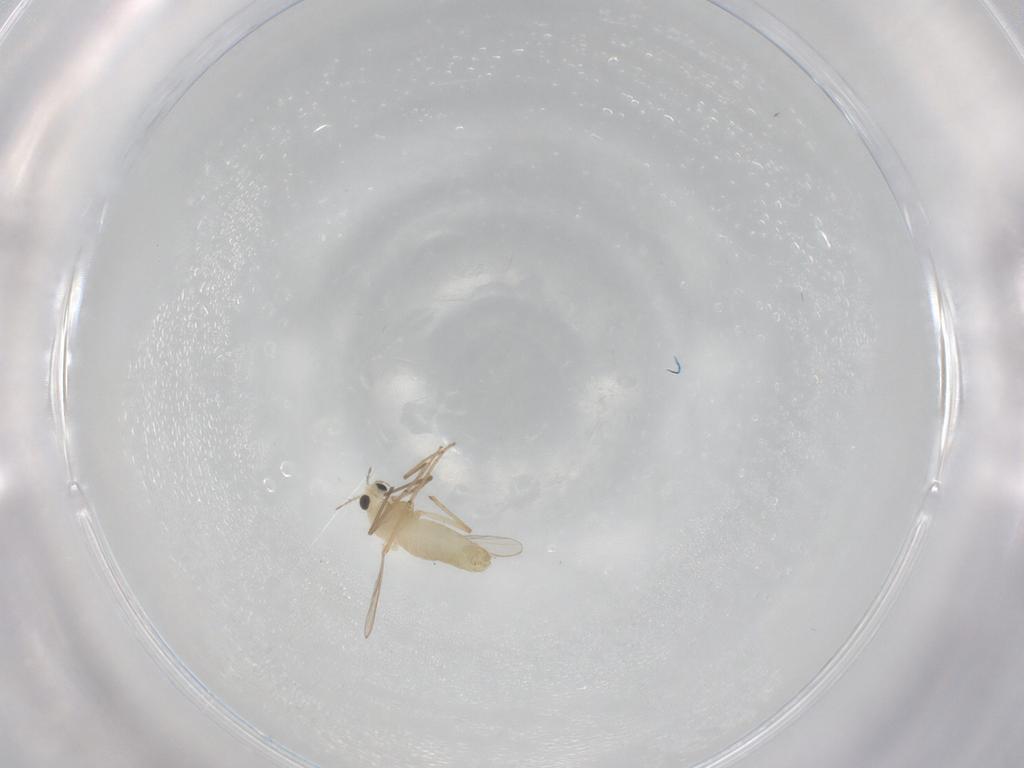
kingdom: Animalia
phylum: Arthropoda
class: Insecta
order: Diptera
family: Chironomidae
